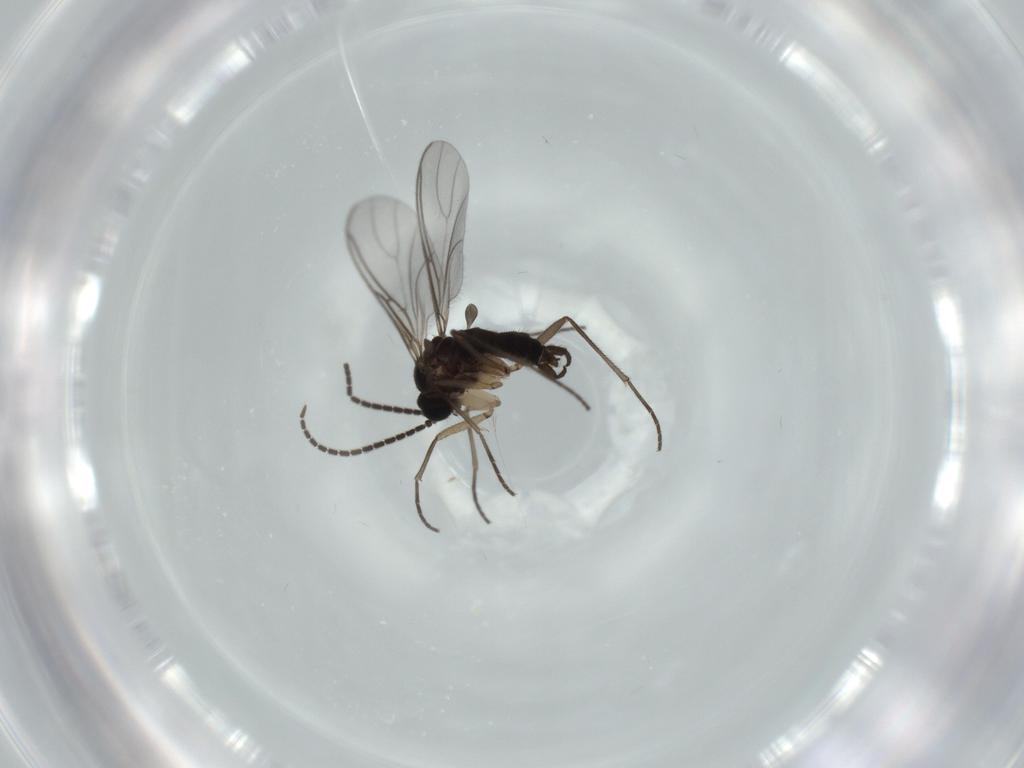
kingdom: Animalia
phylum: Arthropoda
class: Insecta
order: Diptera
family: Sciaridae
